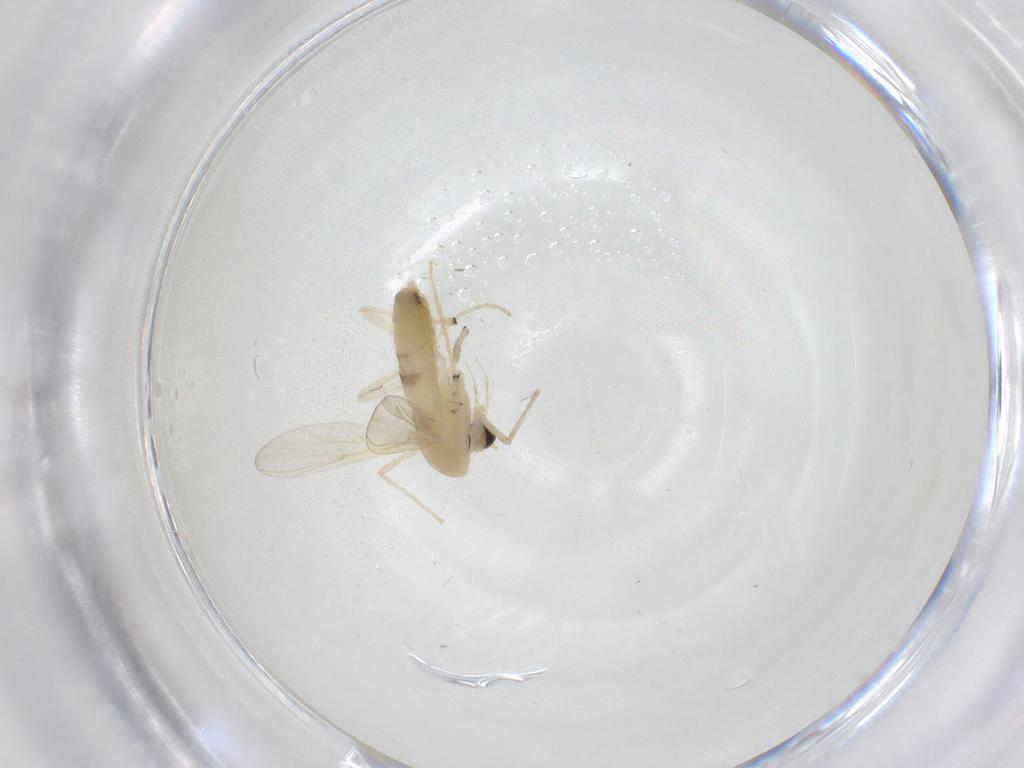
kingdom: Animalia
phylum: Arthropoda
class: Insecta
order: Diptera
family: Chironomidae
